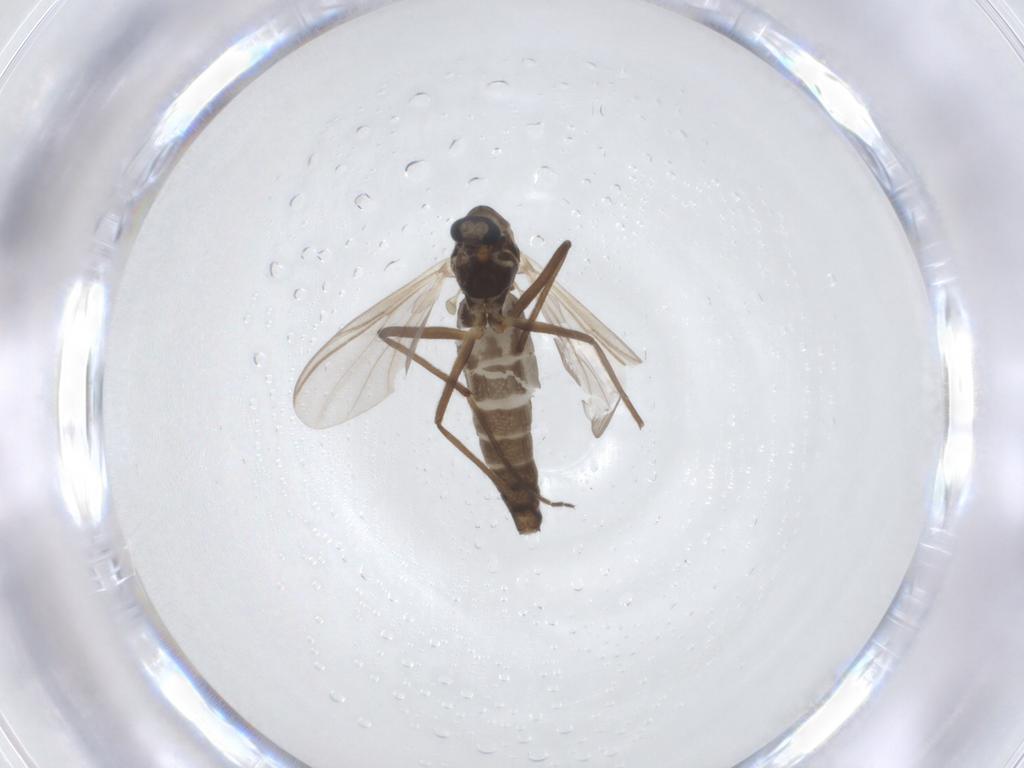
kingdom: Animalia
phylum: Arthropoda
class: Insecta
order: Diptera
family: Chironomidae
